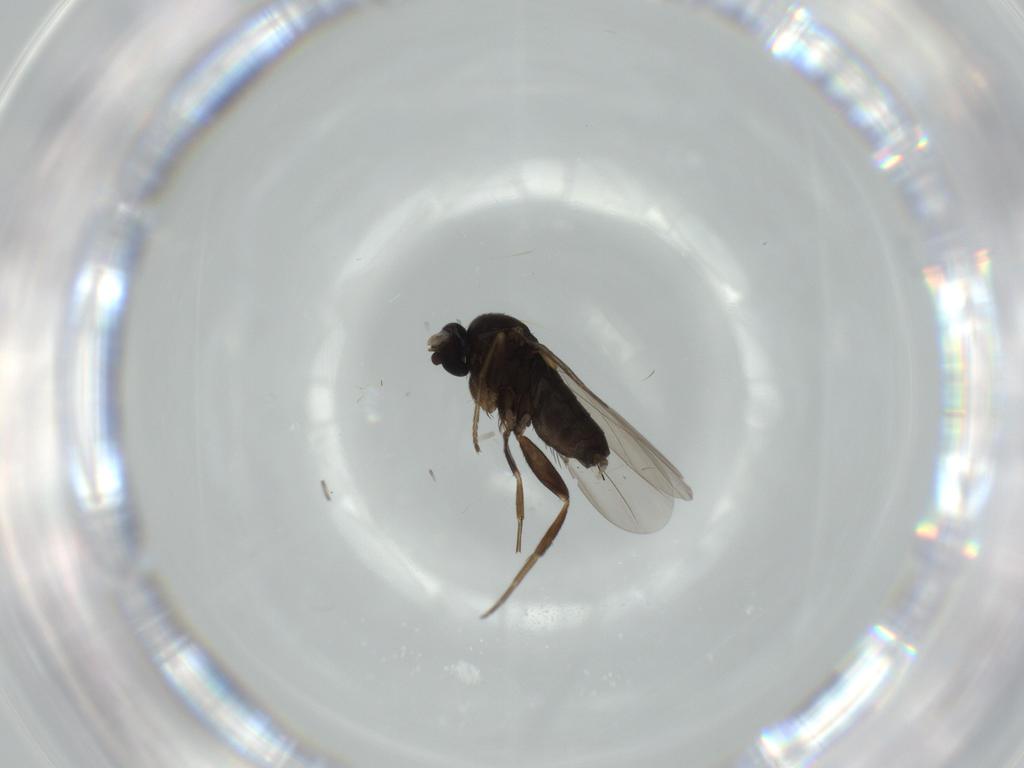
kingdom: Animalia
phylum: Arthropoda
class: Insecta
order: Diptera
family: Phoridae
